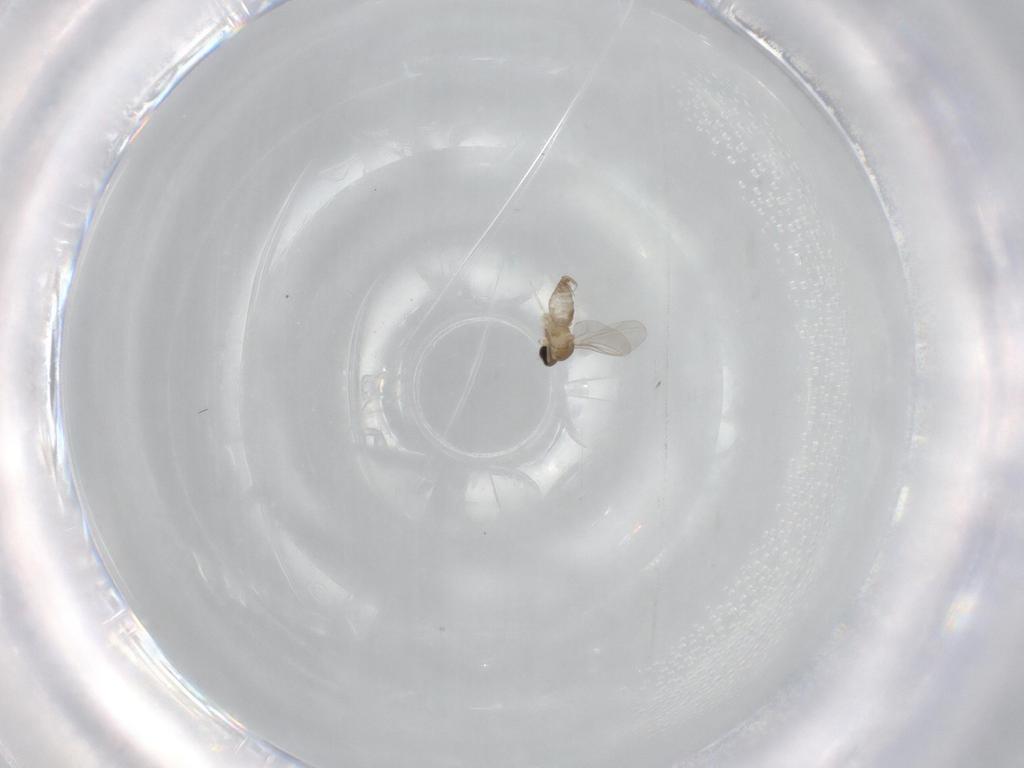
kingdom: Animalia
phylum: Arthropoda
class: Insecta
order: Diptera
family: Cecidomyiidae
